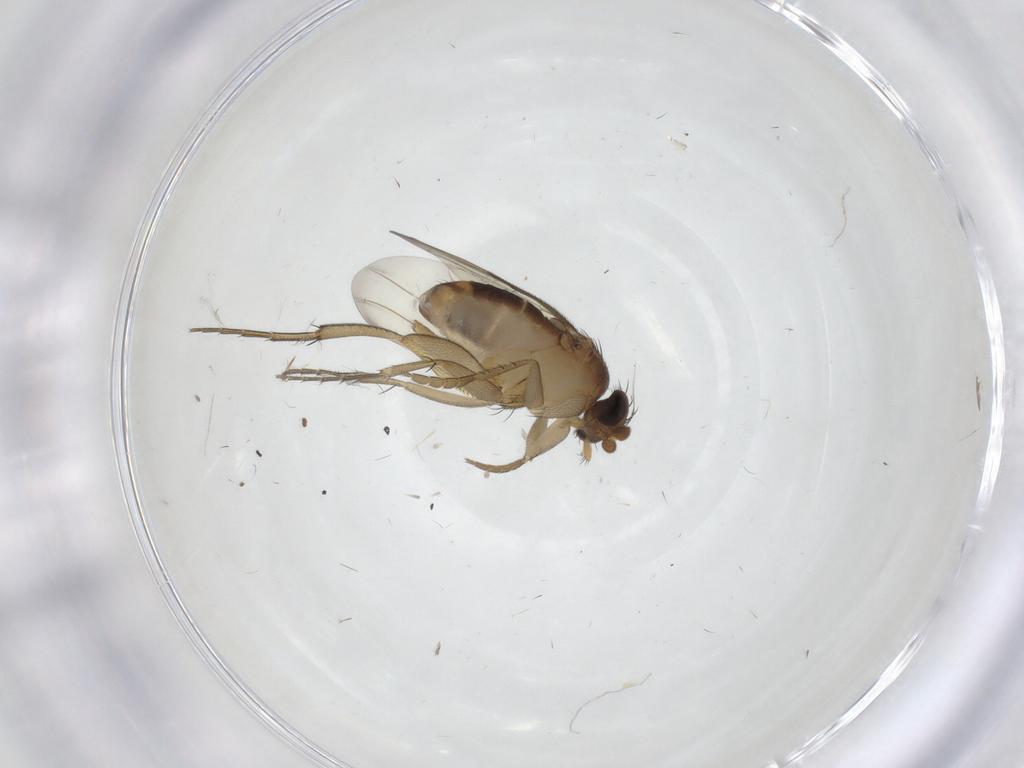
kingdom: Animalia
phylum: Arthropoda
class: Insecta
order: Diptera
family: Phoridae
